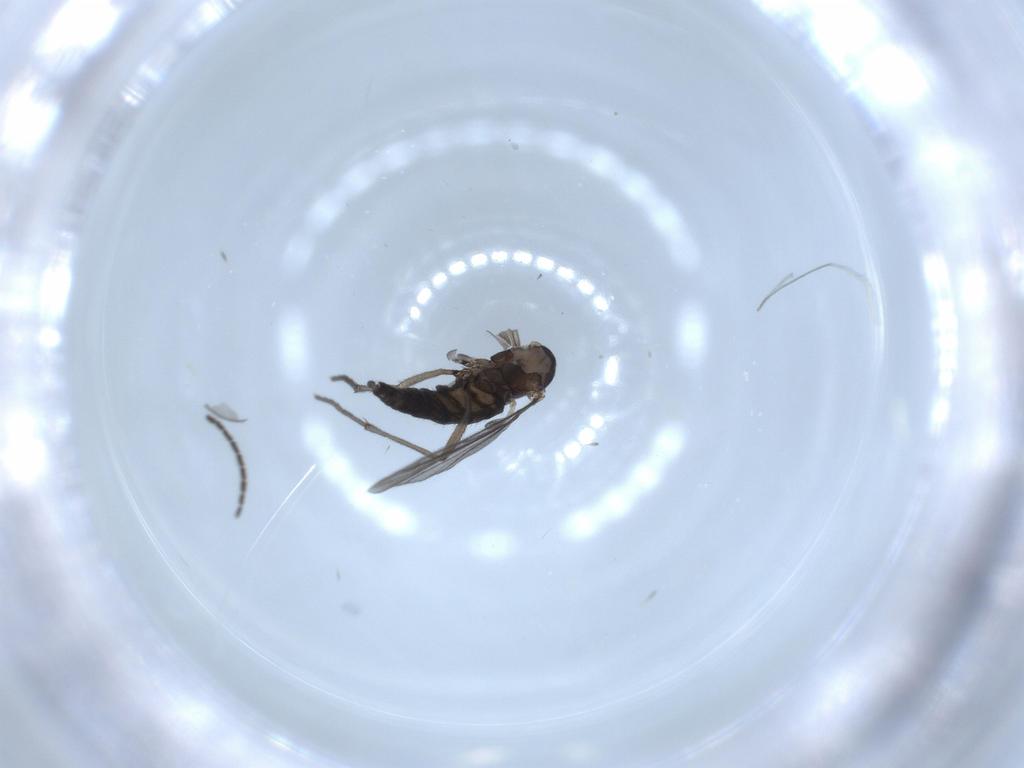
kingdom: Animalia
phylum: Arthropoda
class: Insecta
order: Diptera
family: Sciaridae
